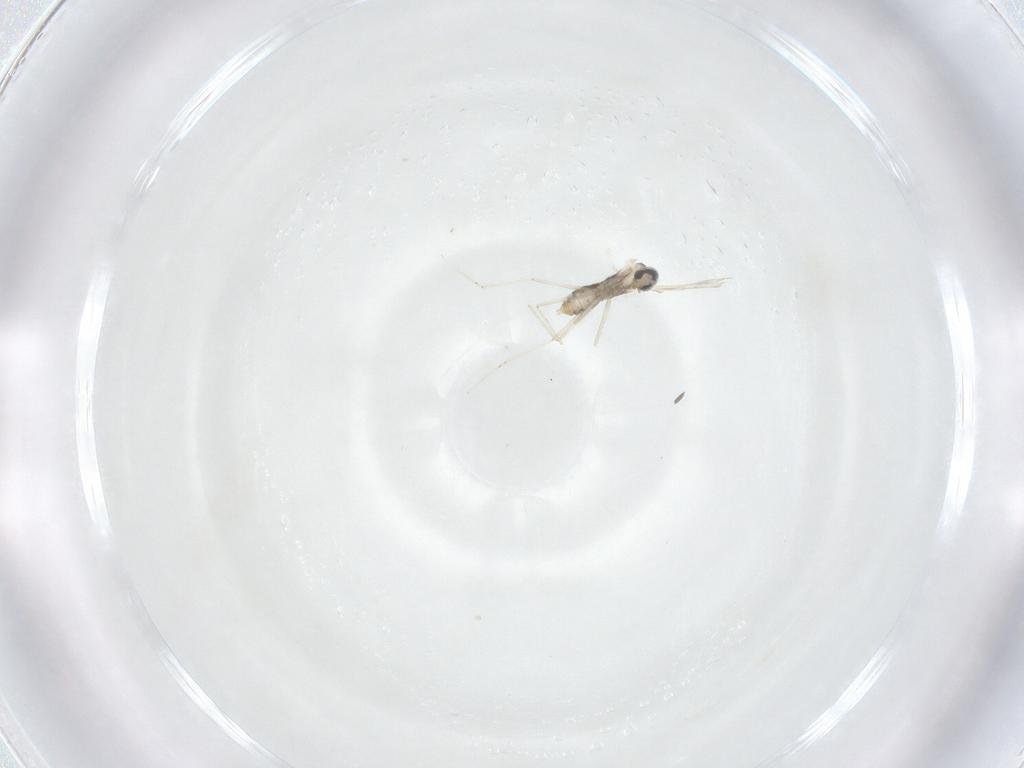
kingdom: Animalia
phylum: Arthropoda
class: Insecta
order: Diptera
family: Cecidomyiidae
